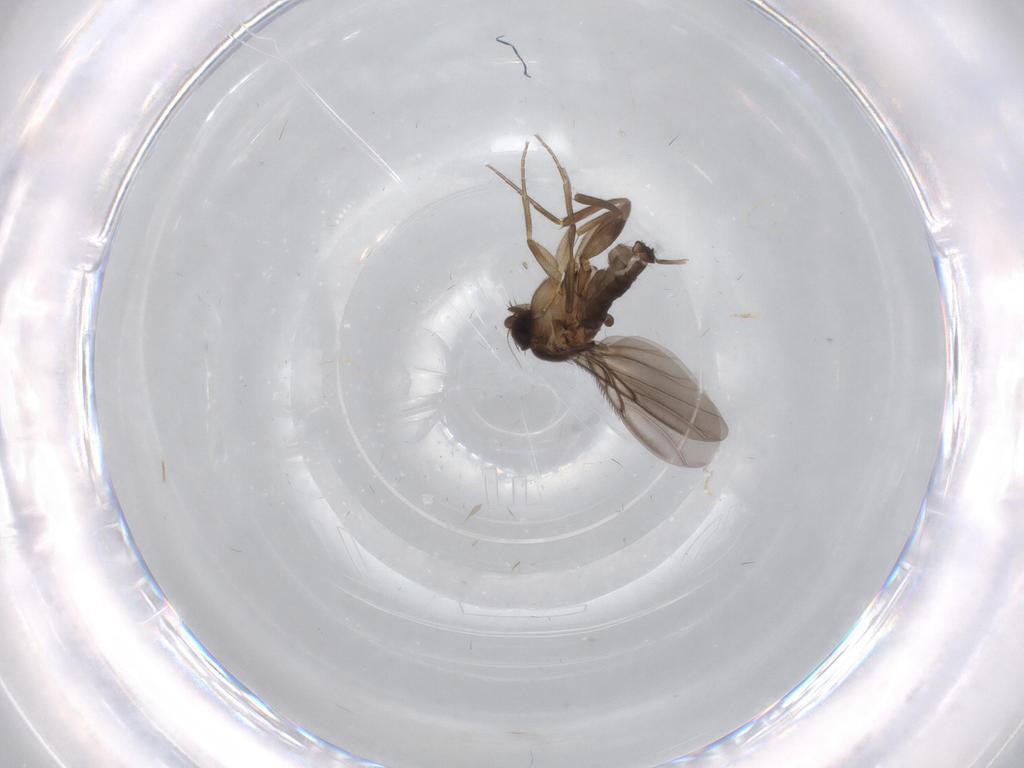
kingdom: Animalia
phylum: Arthropoda
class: Insecta
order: Diptera
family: Phoridae
